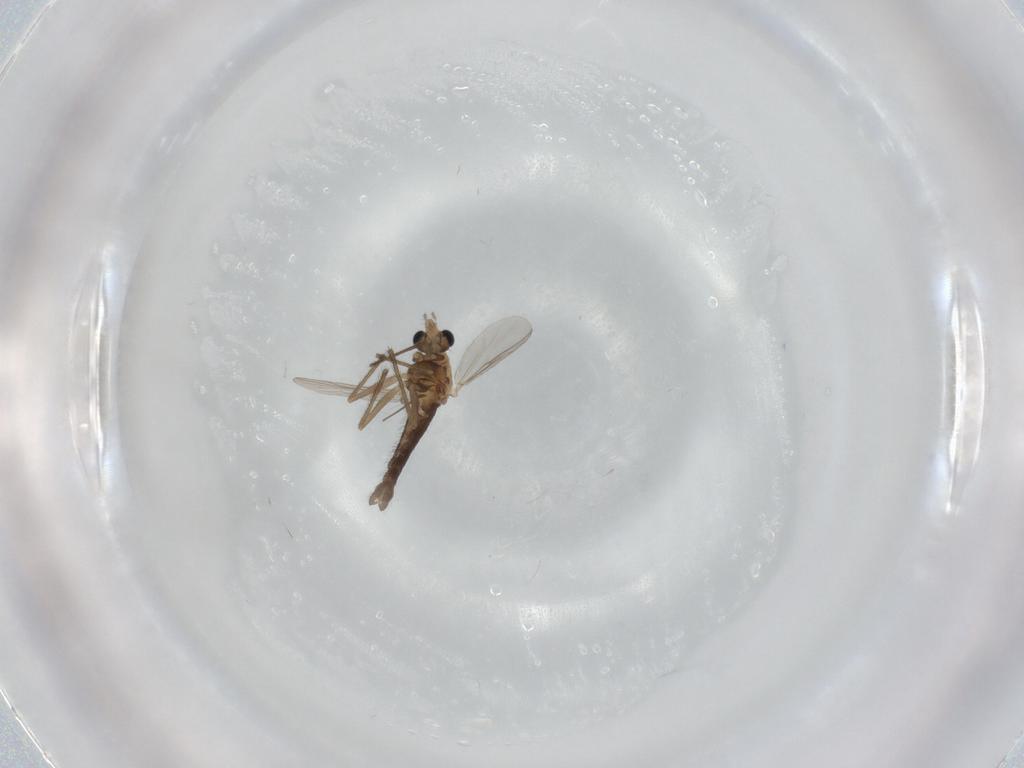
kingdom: Animalia
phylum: Arthropoda
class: Insecta
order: Diptera
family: Chironomidae
